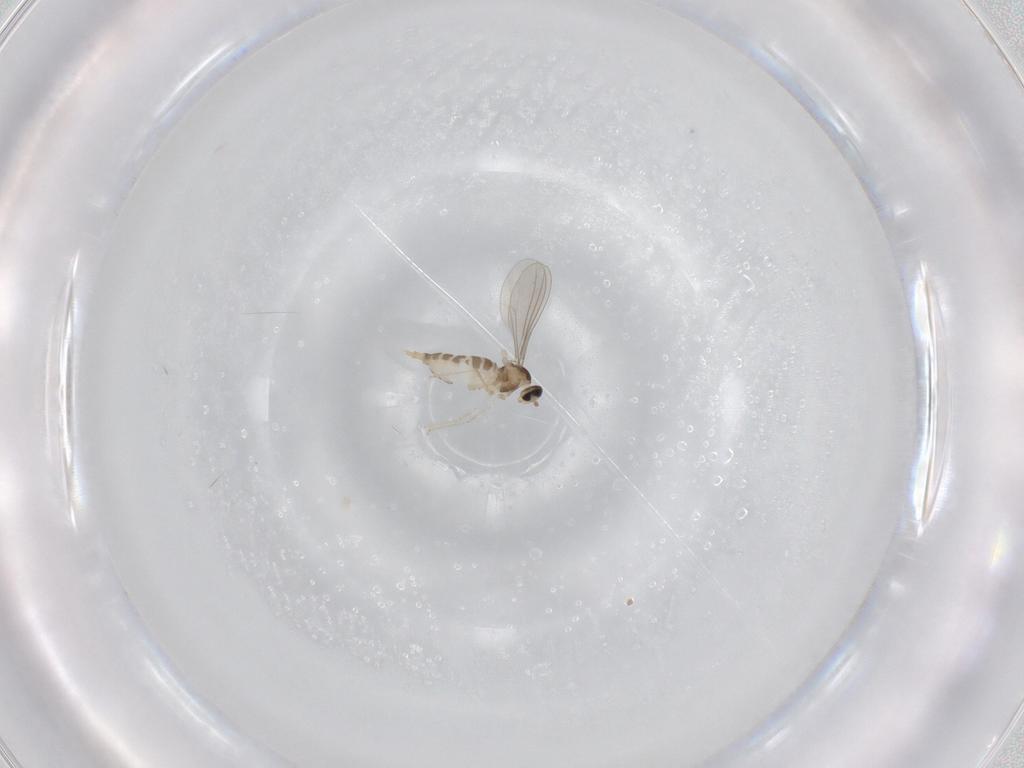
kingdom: Animalia
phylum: Arthropoda
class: Insecta
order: Diptera
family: Cecidomyiidae
